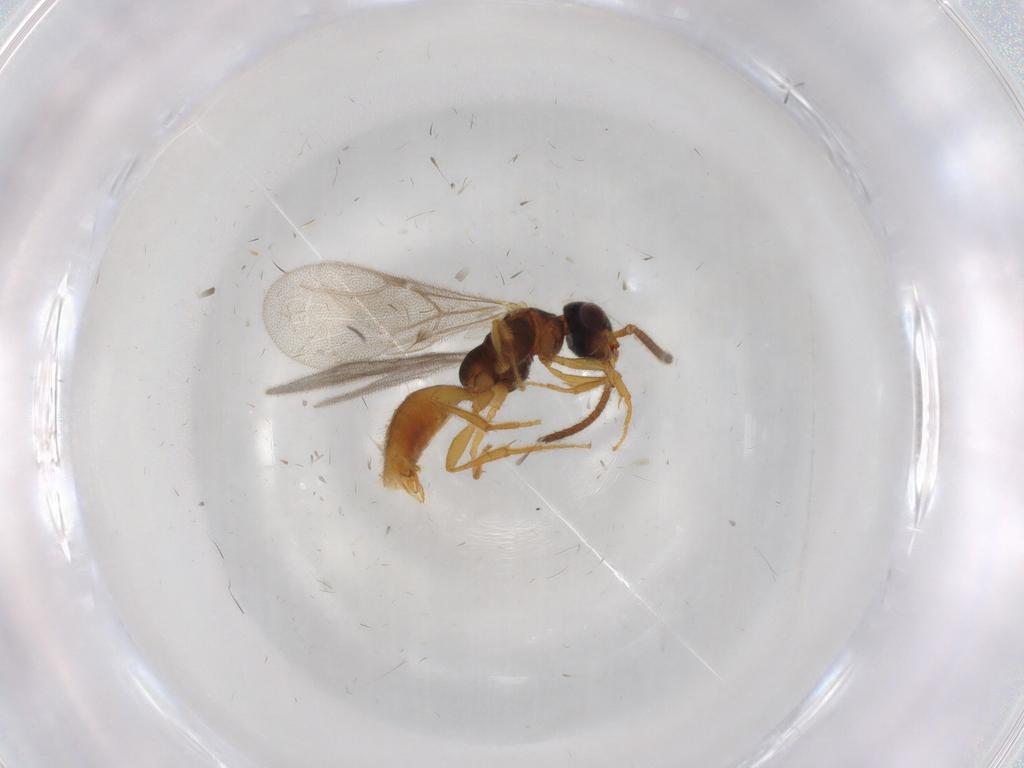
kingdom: Animalia
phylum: Arthropoda
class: Insecta
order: Hymenoptera
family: Bethylidae
